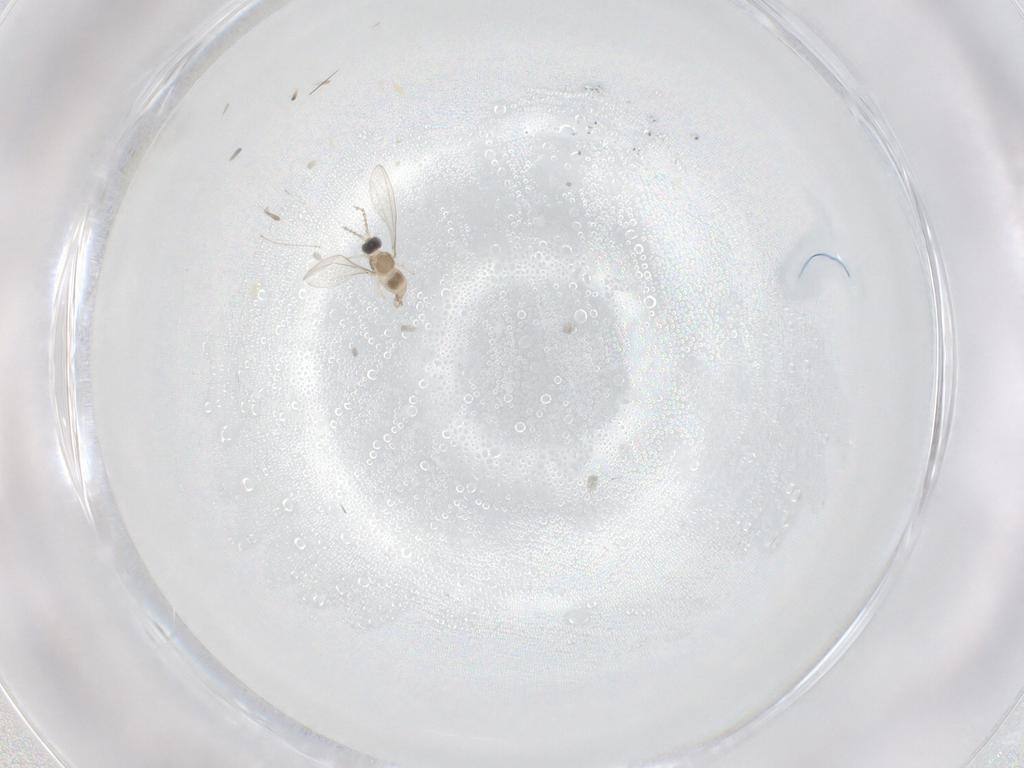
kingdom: Animalia
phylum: Arthropoda
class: Insecta
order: Diptera
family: Cecidomyiidae
